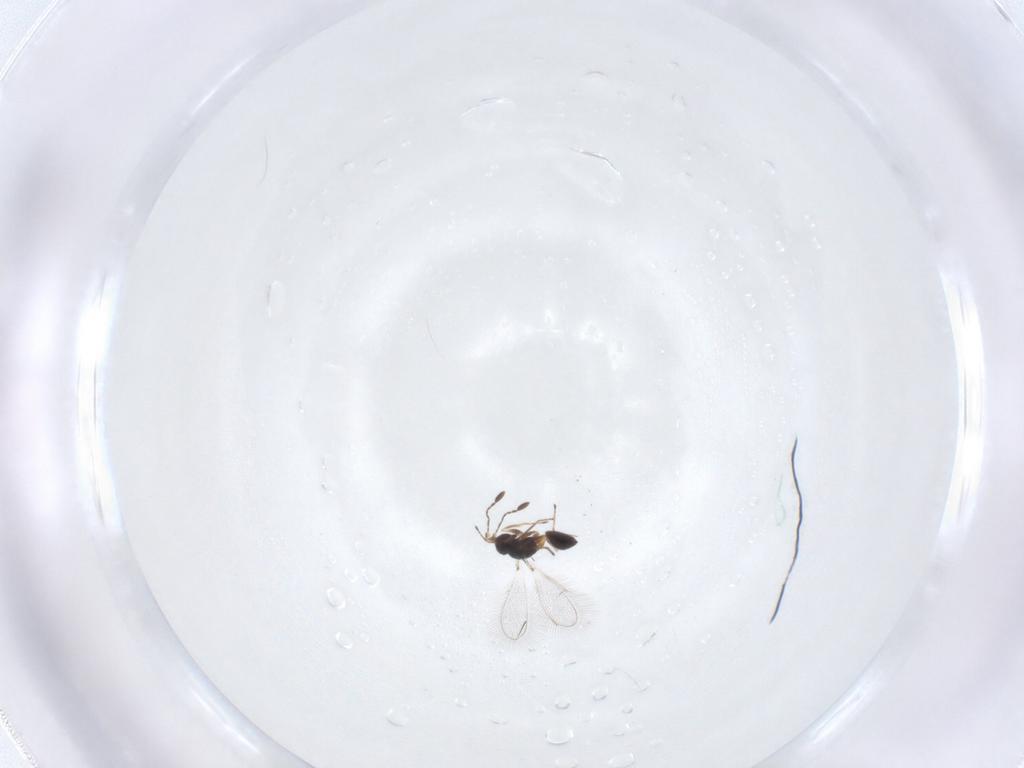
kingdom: Animalia
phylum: Arthropoda
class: Insecta
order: Hymenoptera
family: Mymaridae
